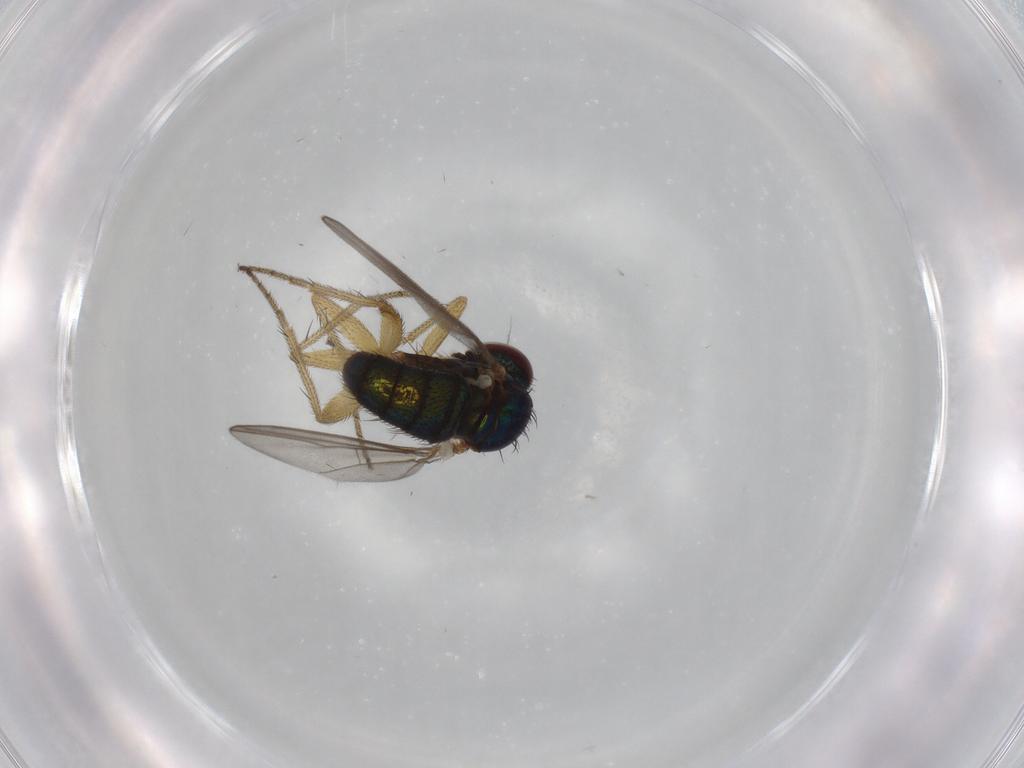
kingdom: Animalia
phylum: Arthropoda
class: Insecta
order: Diptera
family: Dolichopodidae
